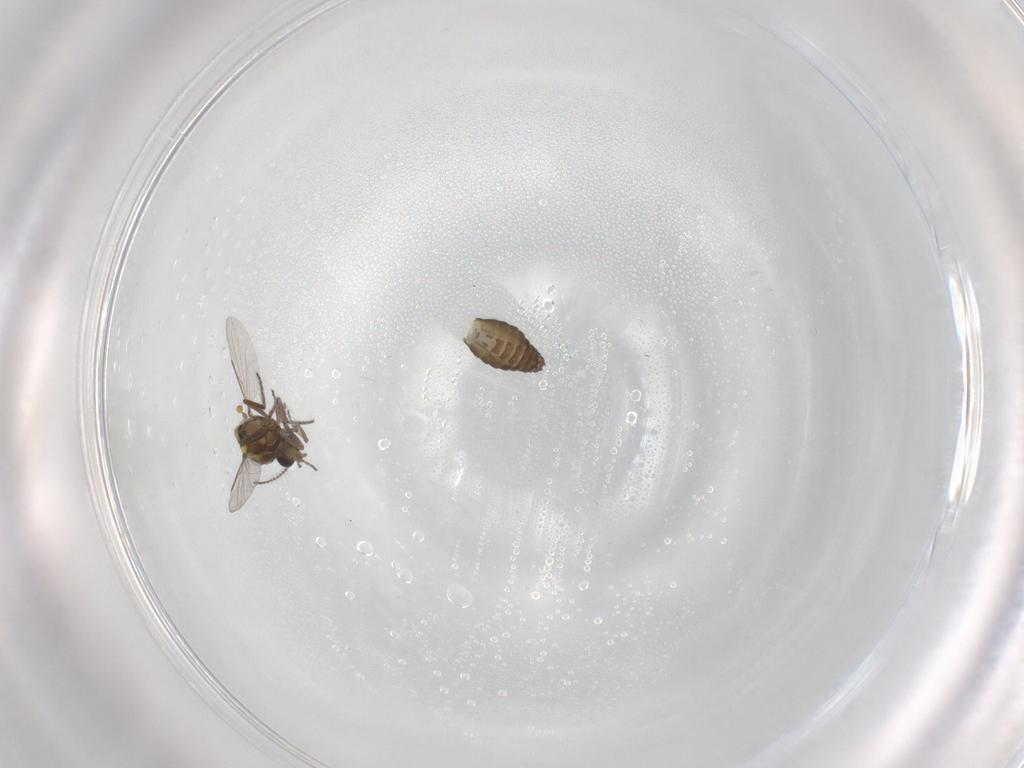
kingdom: Animalia
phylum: Arthropoda
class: Insecta
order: Diptera
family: Ceratopogonidae
